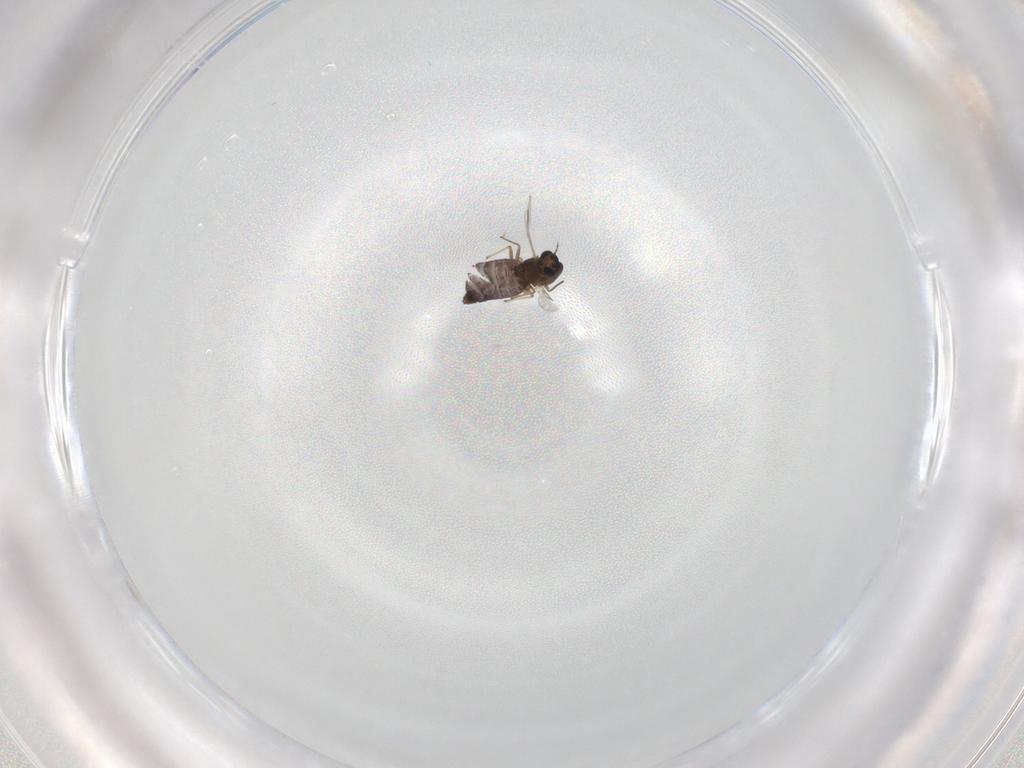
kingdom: Animalia
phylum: Arthropoda
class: Insecta
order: Diptera
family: Chironomidae
